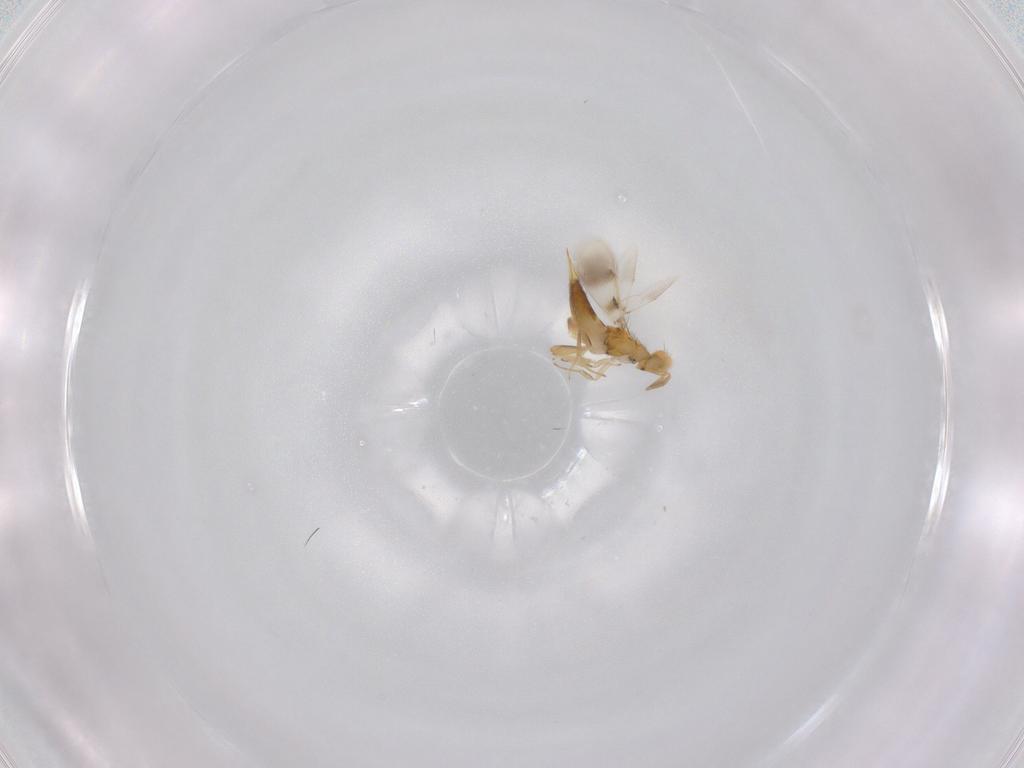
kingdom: Animalia
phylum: Arthropoda
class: Insecta
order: Hymenoptera
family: Aphelinidae
